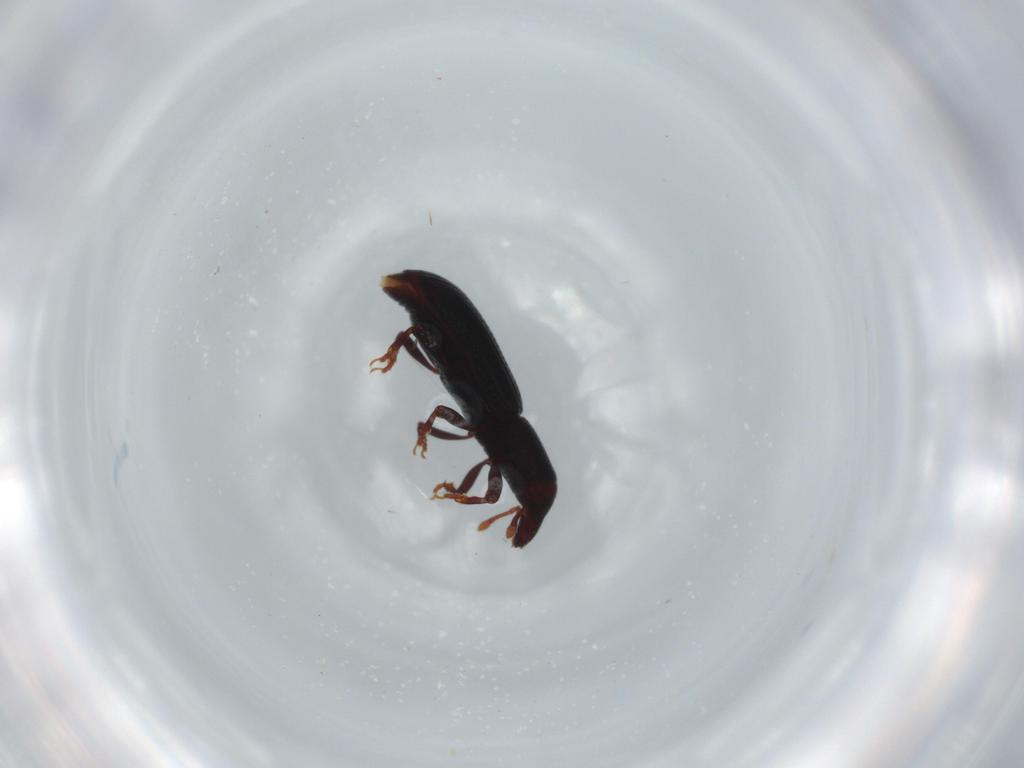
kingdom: Animalia
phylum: Arthropoda
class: Insecta
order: Coleoptera
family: Curculionidae
